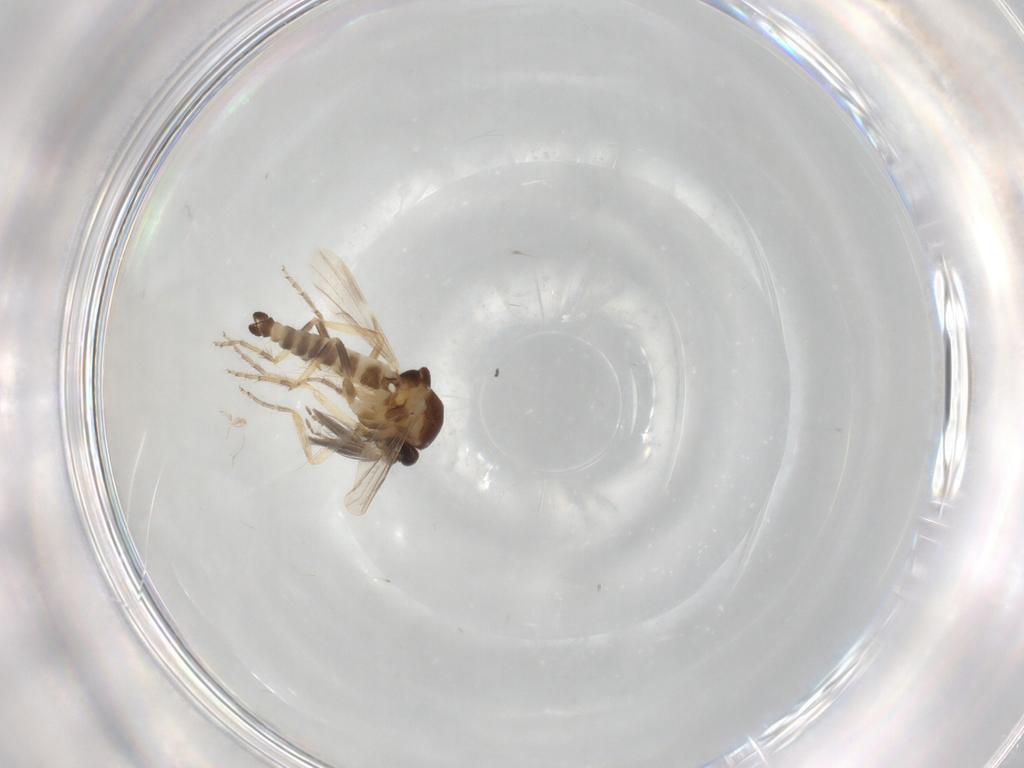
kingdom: Animalia
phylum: Arthropoda
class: Insecta
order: Diptera
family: Ceratopogonidae
